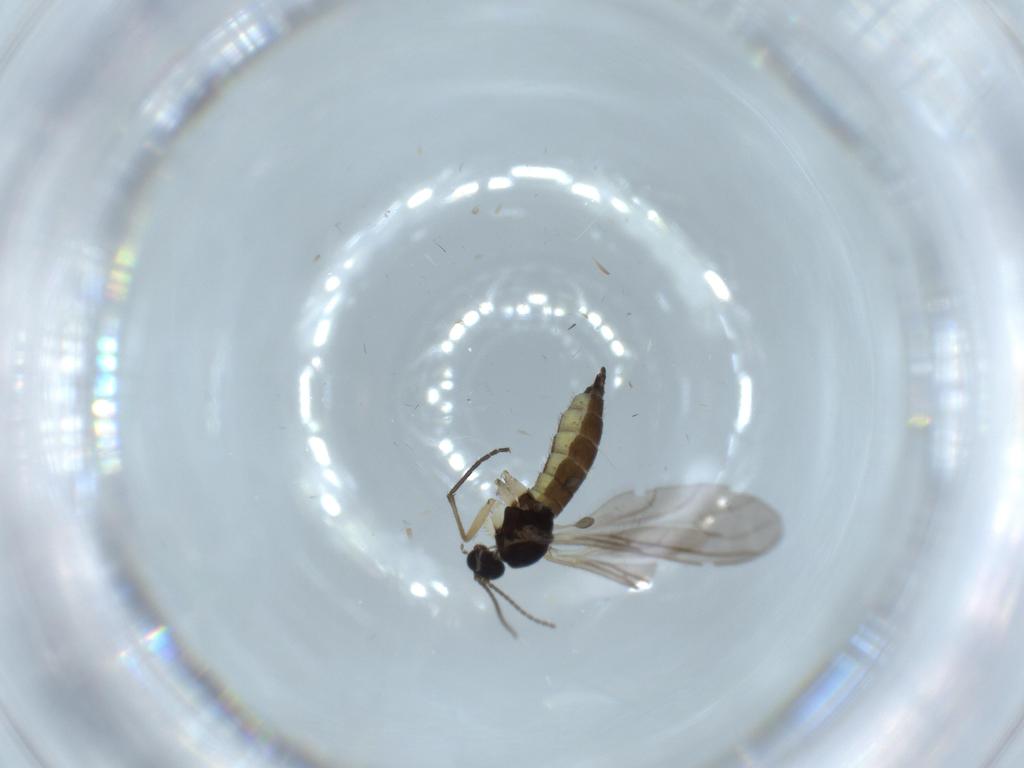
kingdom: Animalia
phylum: Arthropoda
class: Insecta
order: Diptera
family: Sciaridae
